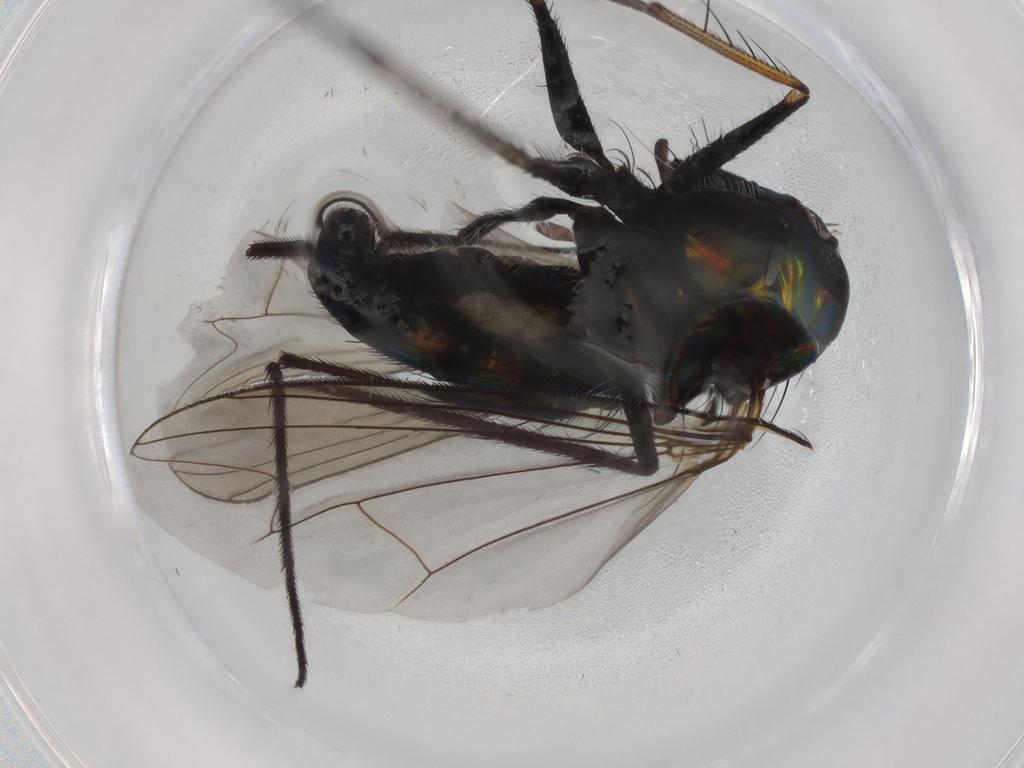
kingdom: Animalia
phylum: Arthropoda
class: Insecta
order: Diptera
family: Dolichopodidae
